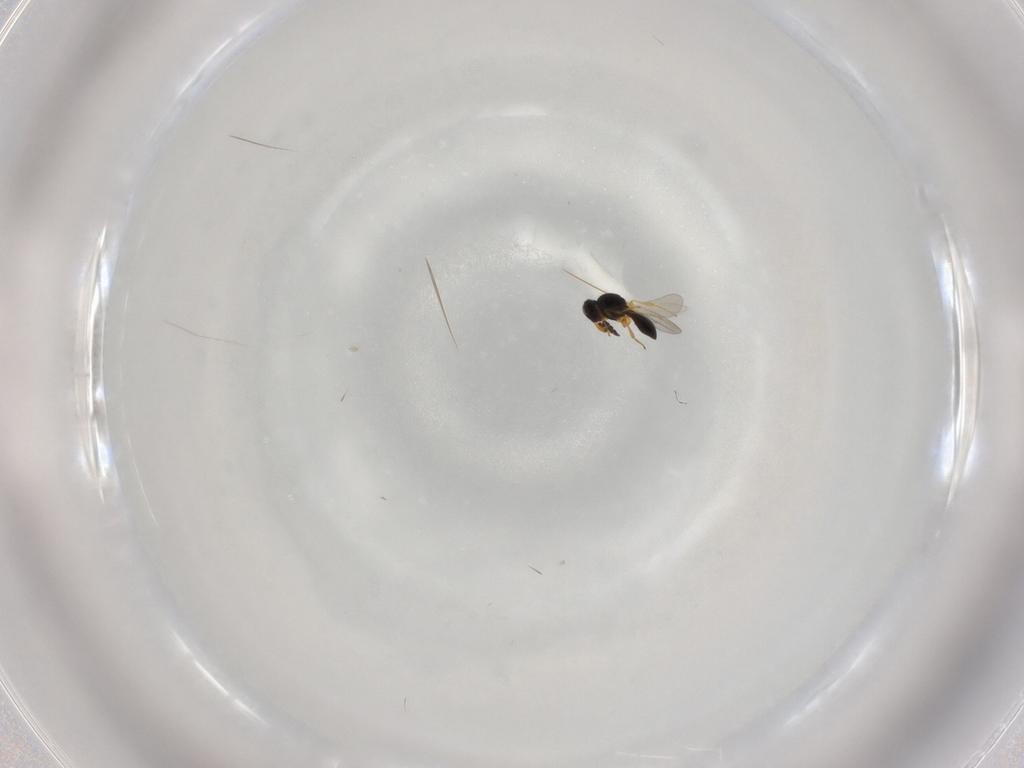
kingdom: Animalia
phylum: Arthropoda
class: Insecta
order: Hymenoptera
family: Platygastridae
